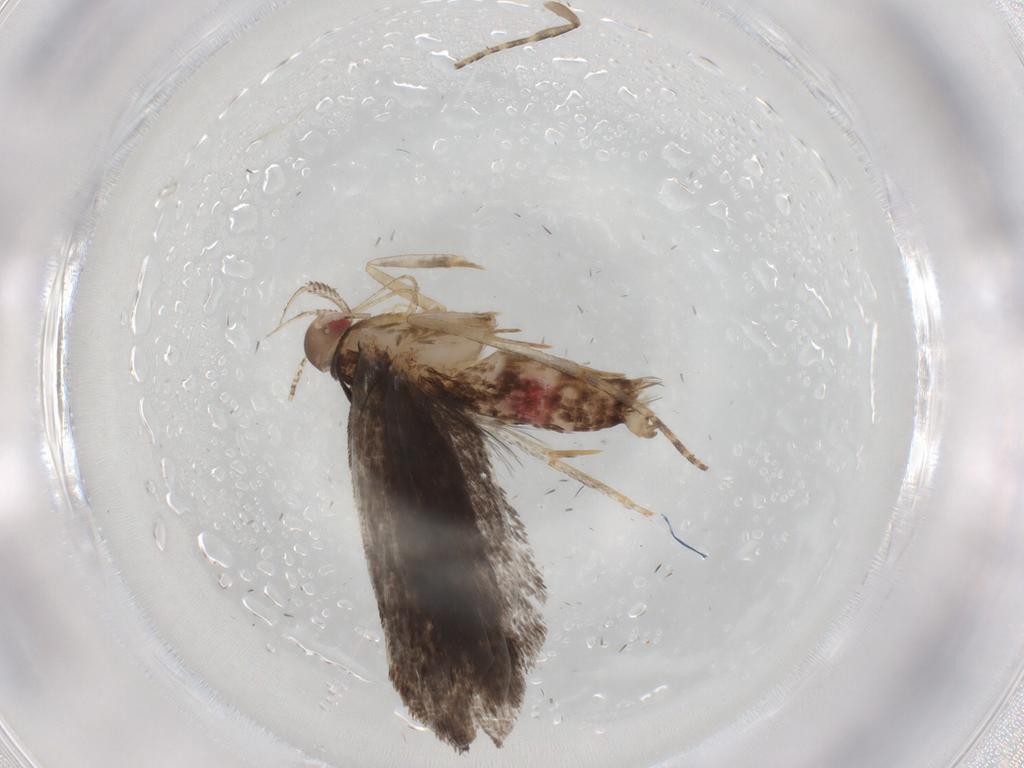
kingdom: Animalia
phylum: Arthropoda
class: Insecta
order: Lepidoptera
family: Gelechiidae
